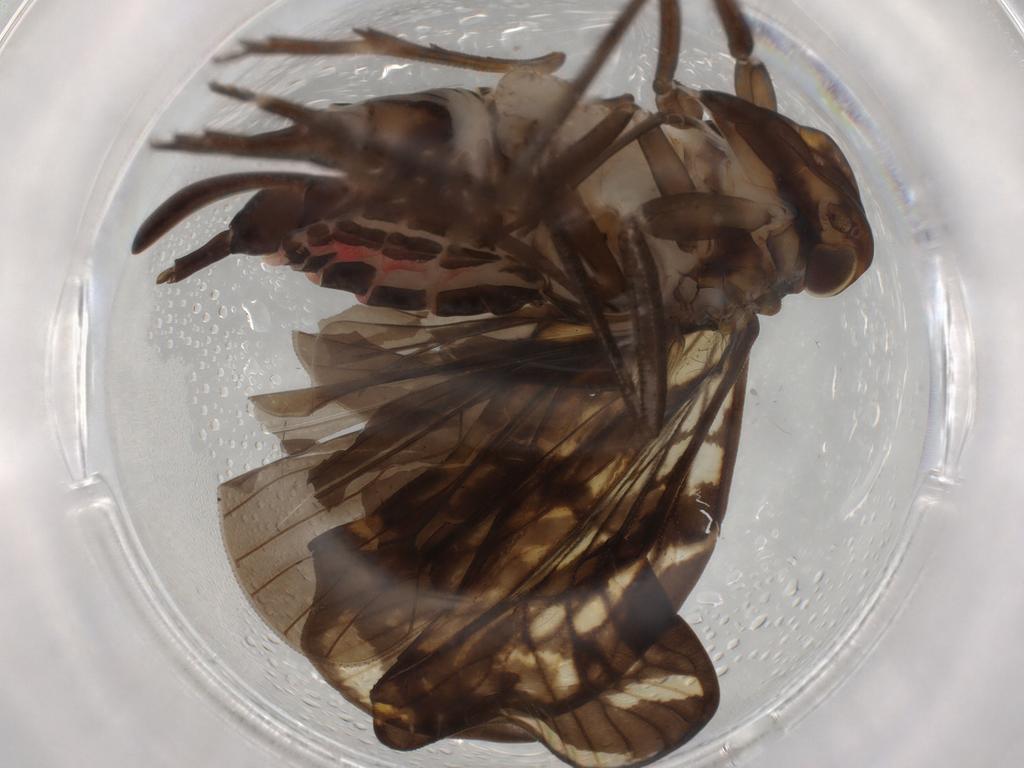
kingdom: Animalia
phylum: Arthropoda
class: Insecta
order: Hemiptera
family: Cixiidae
